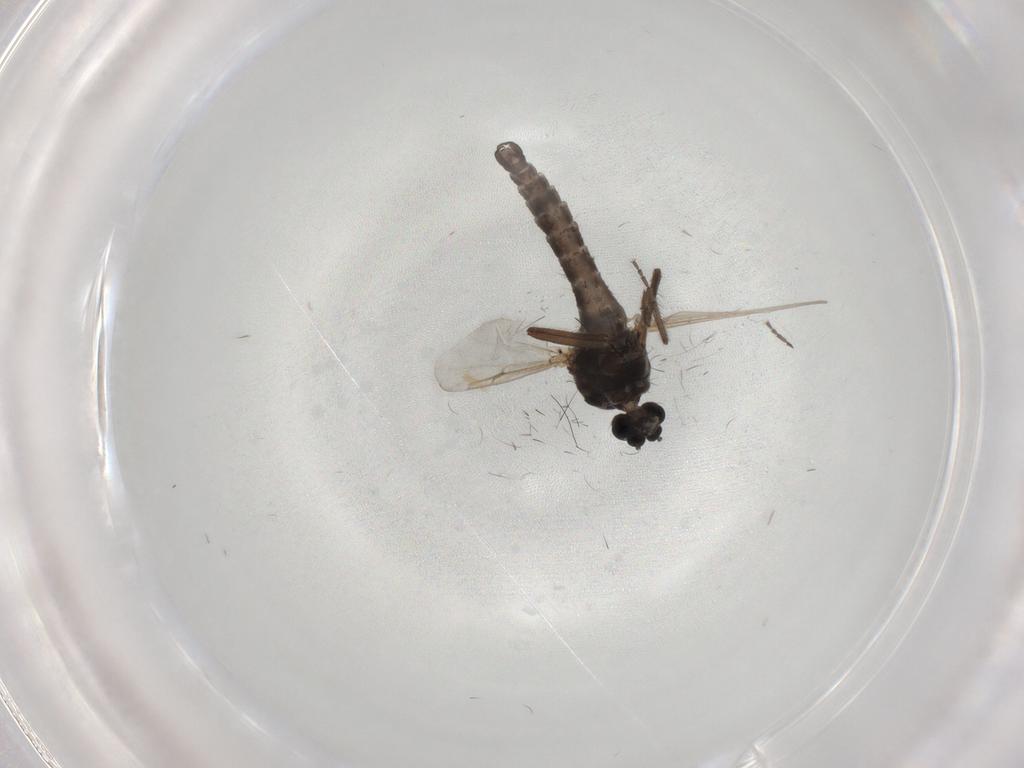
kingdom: Animalia
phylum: Arthropoda
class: Insecta
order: Diptera
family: Ceratopogonidae
